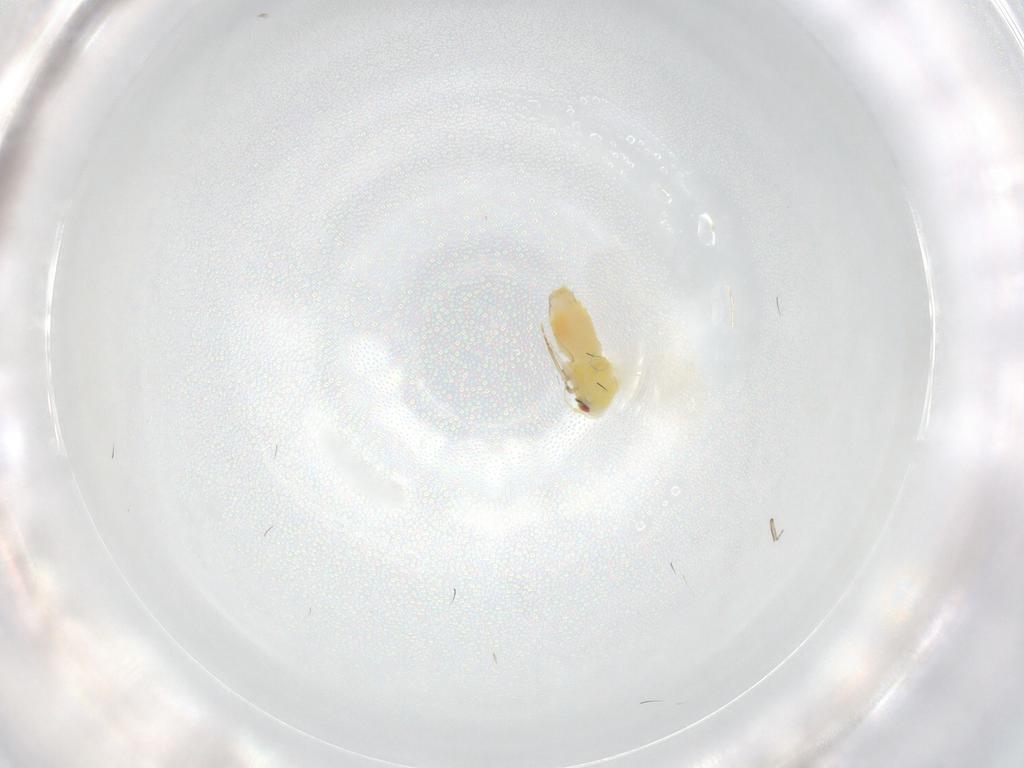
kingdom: Animalia
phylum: Arthropoda
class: Insecta
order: Hemiptera
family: Aleyrodidae
